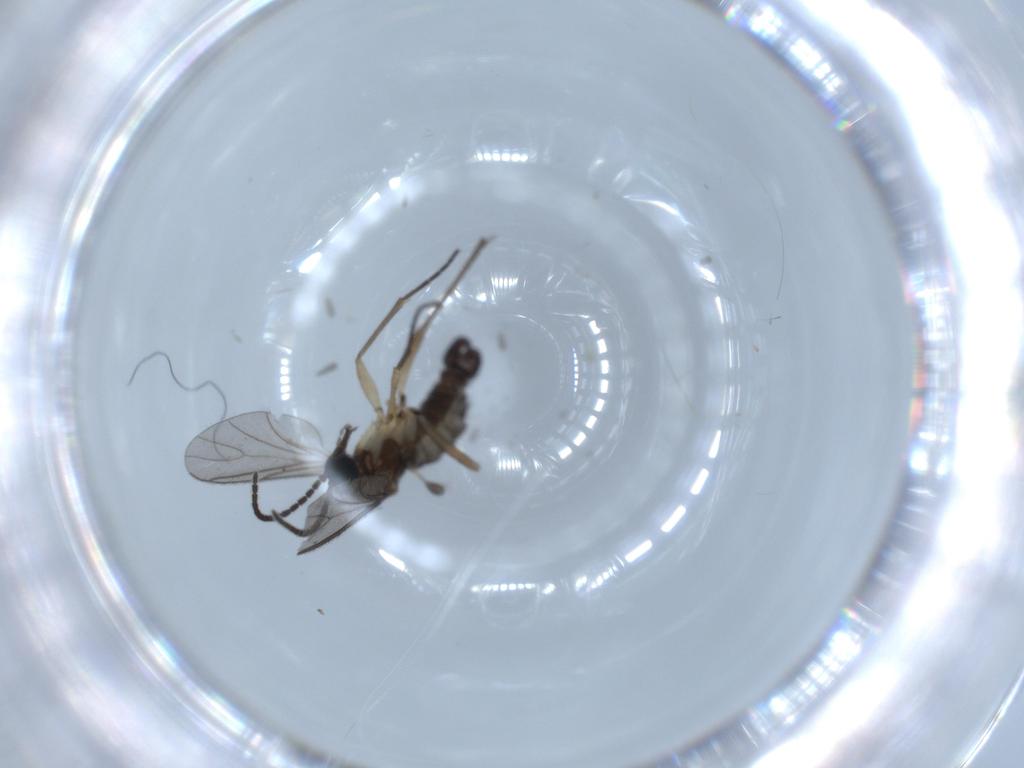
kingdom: Animalia
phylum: Arthropoda
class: Insecta
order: Diptera
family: Sciaridae
